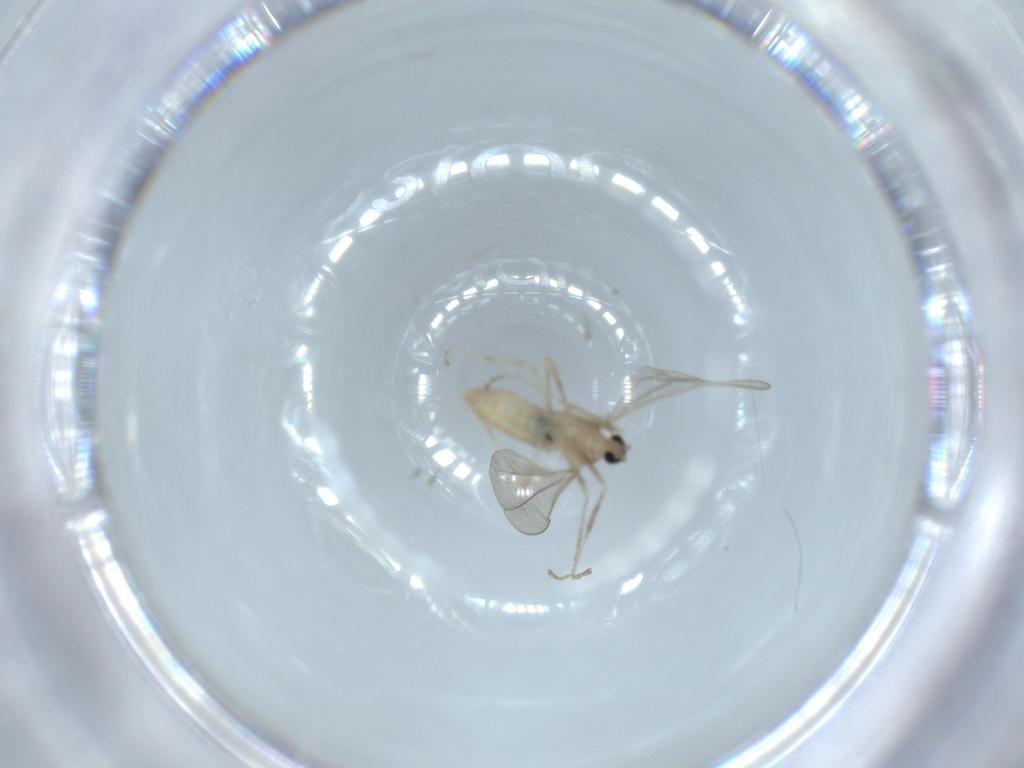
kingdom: Animalia
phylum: Arthropoda
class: Insecta
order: Diptera
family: Cecidomyiidae
